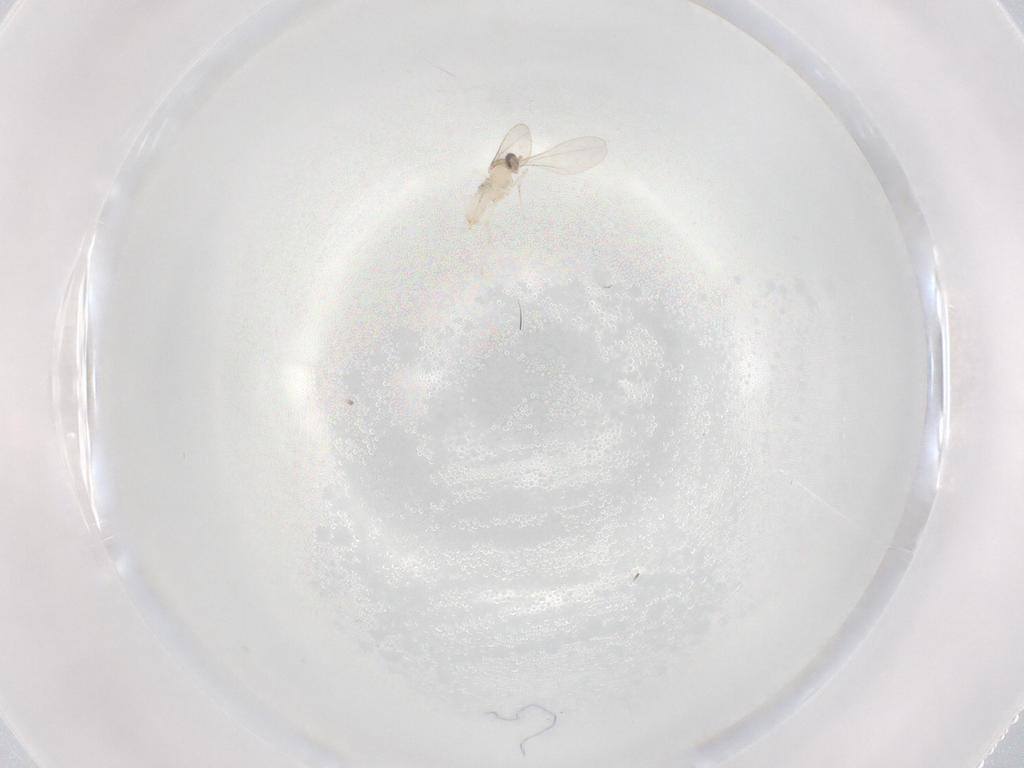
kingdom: Animalia
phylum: Arthropoda
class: Insecta
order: Diptera
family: Cecidomyiidae
